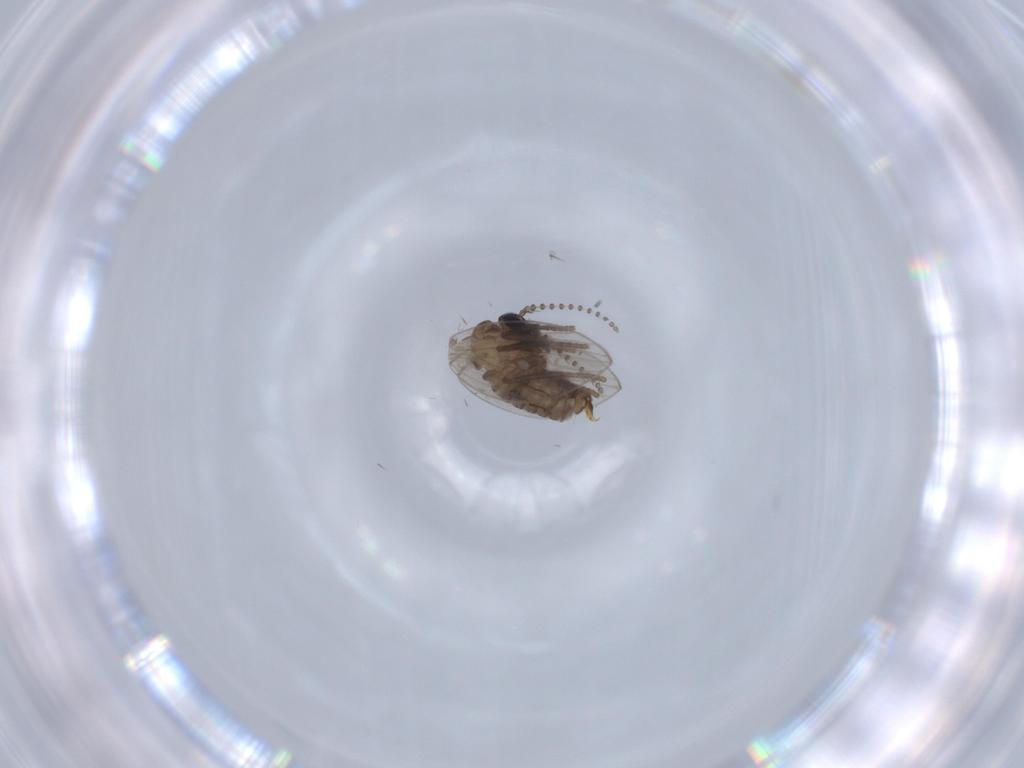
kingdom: Animalia
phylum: Arthropoda
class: Insecta
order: Diptera
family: Psychodidae
